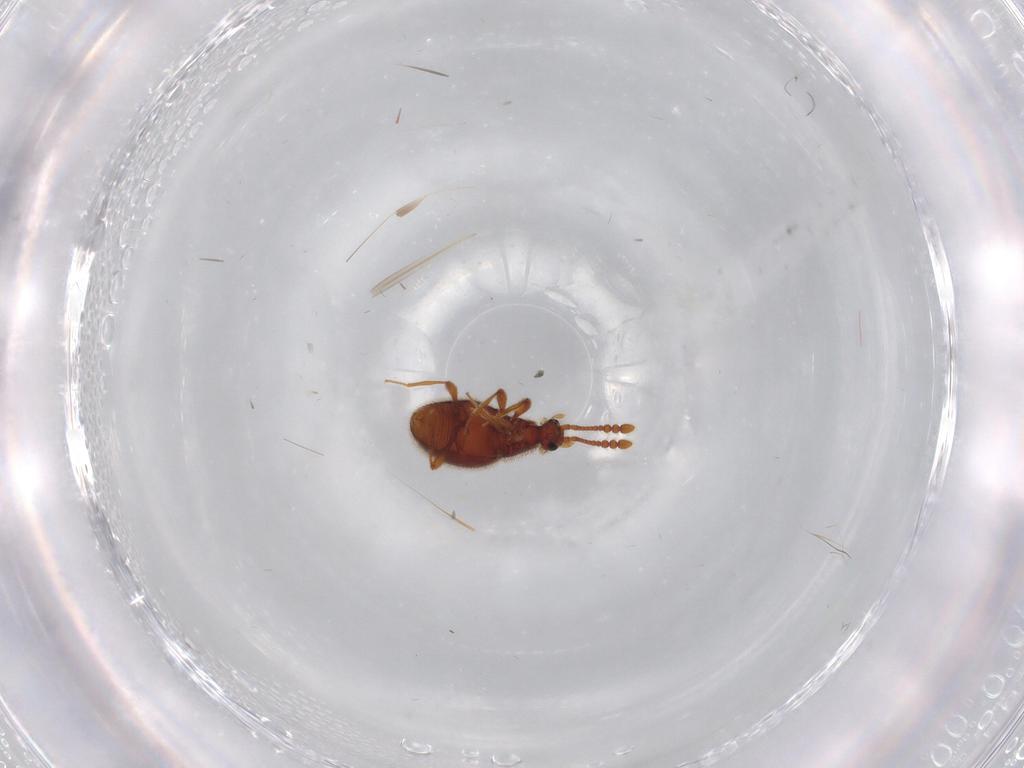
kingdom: Animalia
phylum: Arthropoda
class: Insecta
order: Coleoptera
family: Staphylinidae
